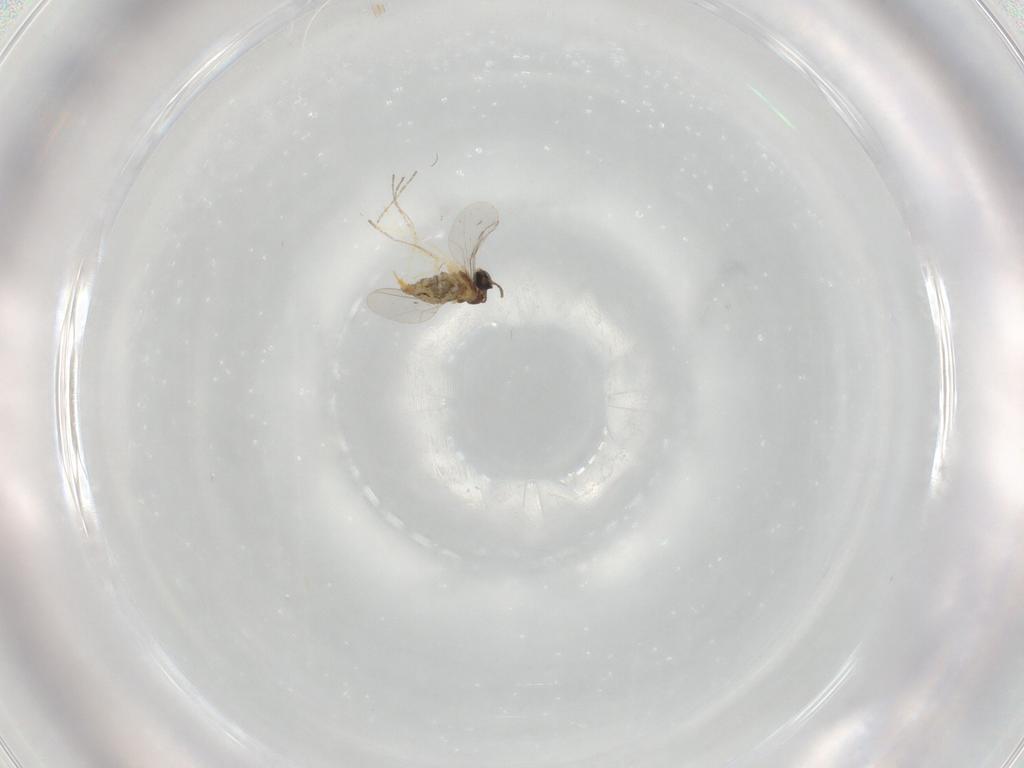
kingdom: Animalia
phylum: Arthropoda
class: Insecta
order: Diptera
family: Cecidomyiidae
